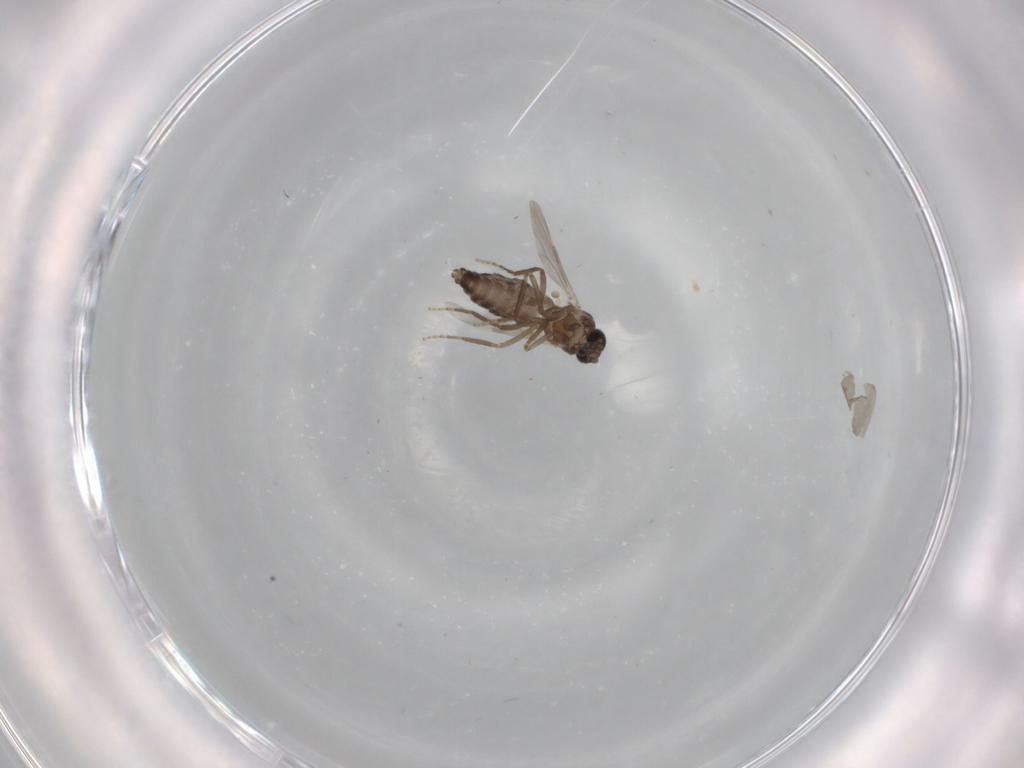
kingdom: Animalia
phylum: Arthropoda
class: Insecta
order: Diptera
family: Ceratopogonidae
